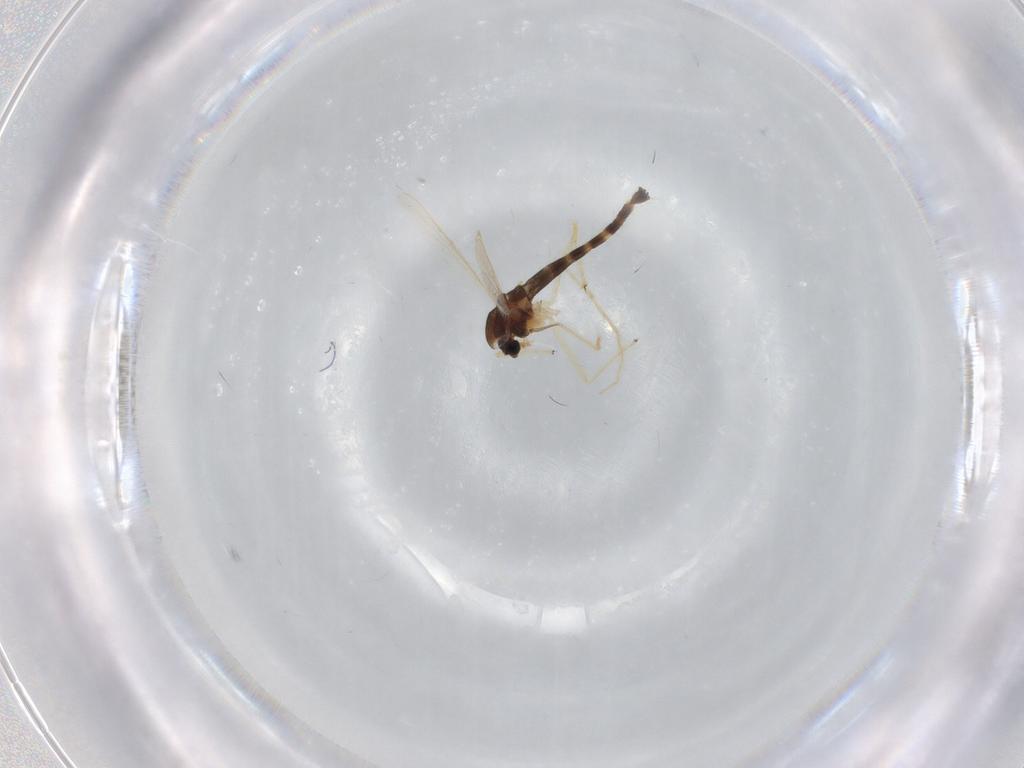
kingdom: Animalia
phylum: Arthropoda
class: Insecta
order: Diptera
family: Chironomidae
